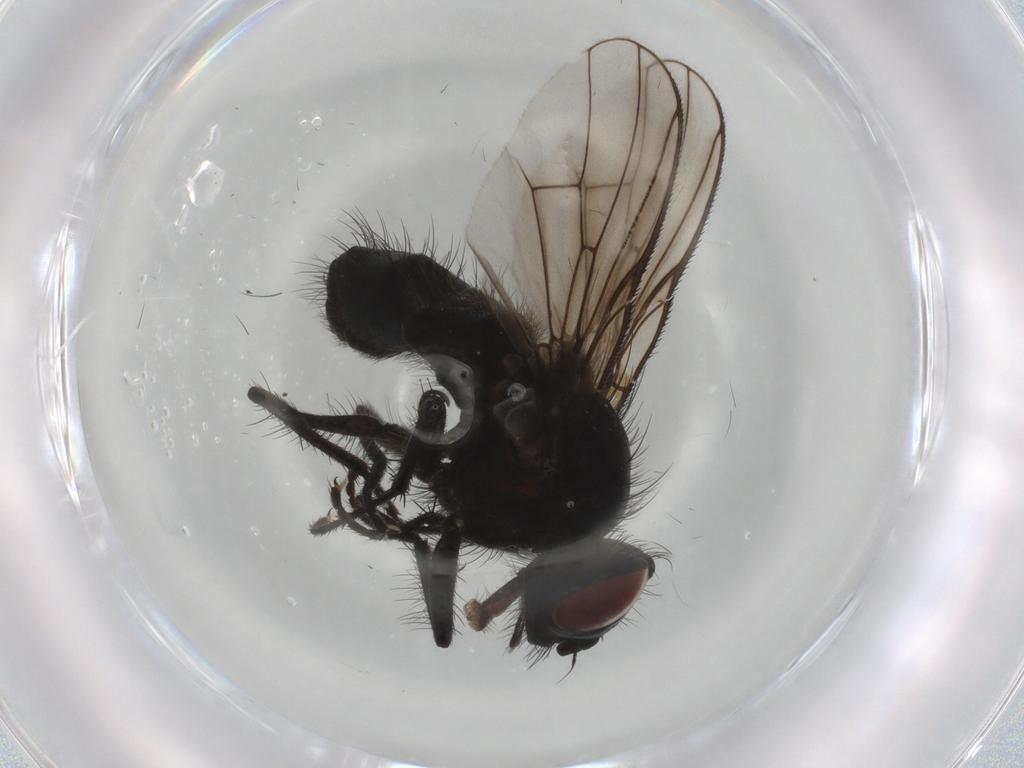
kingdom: Animalia
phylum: Arthropoda
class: Insecta
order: Diptera
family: Muscidae
